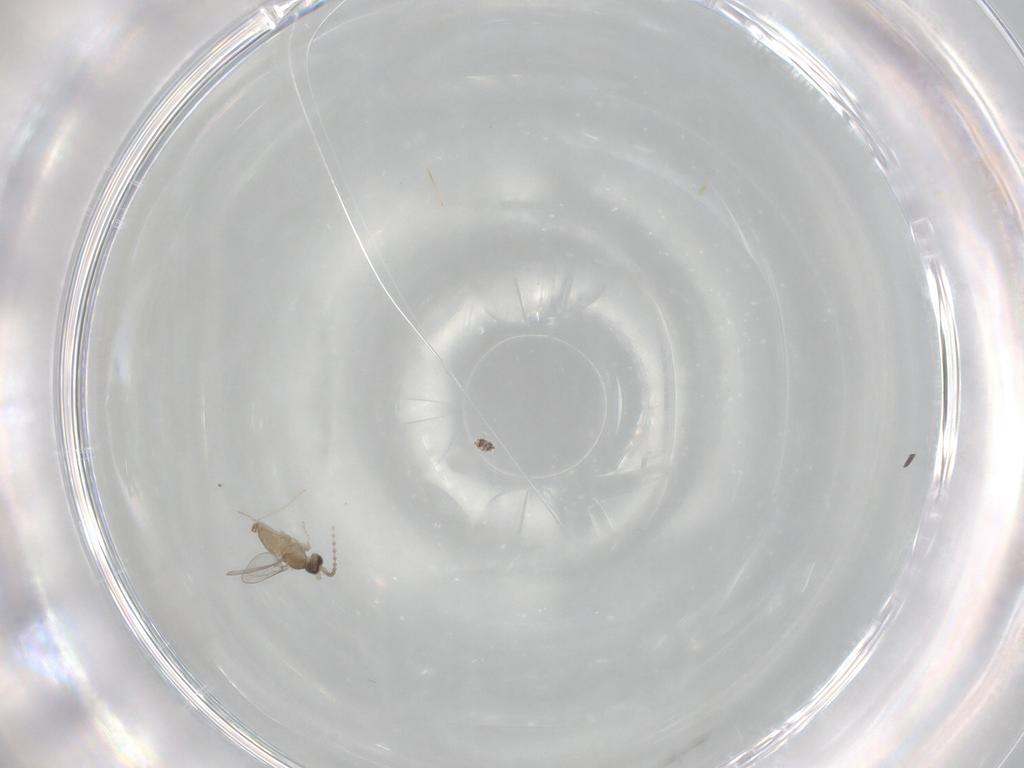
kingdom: Animalia
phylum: Arthropoda
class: Insecta
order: Diptera
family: Cecidomyiidae
